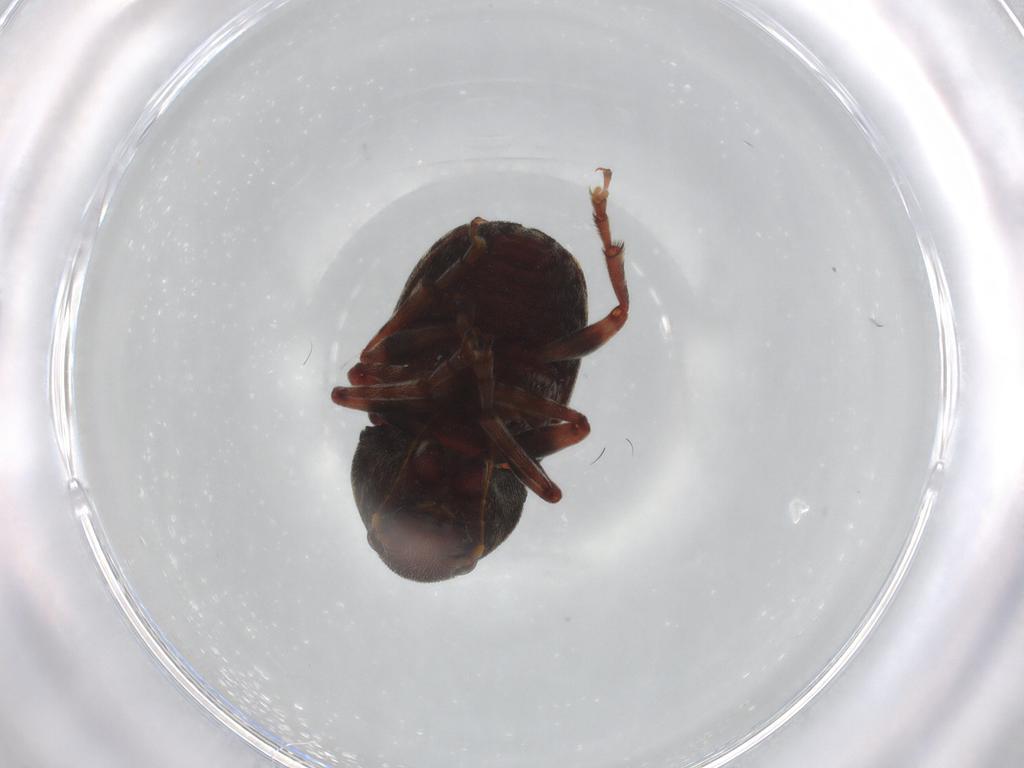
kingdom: Animalia
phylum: Arthropoda
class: Insecta
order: Coleoptera
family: Anthribidae
